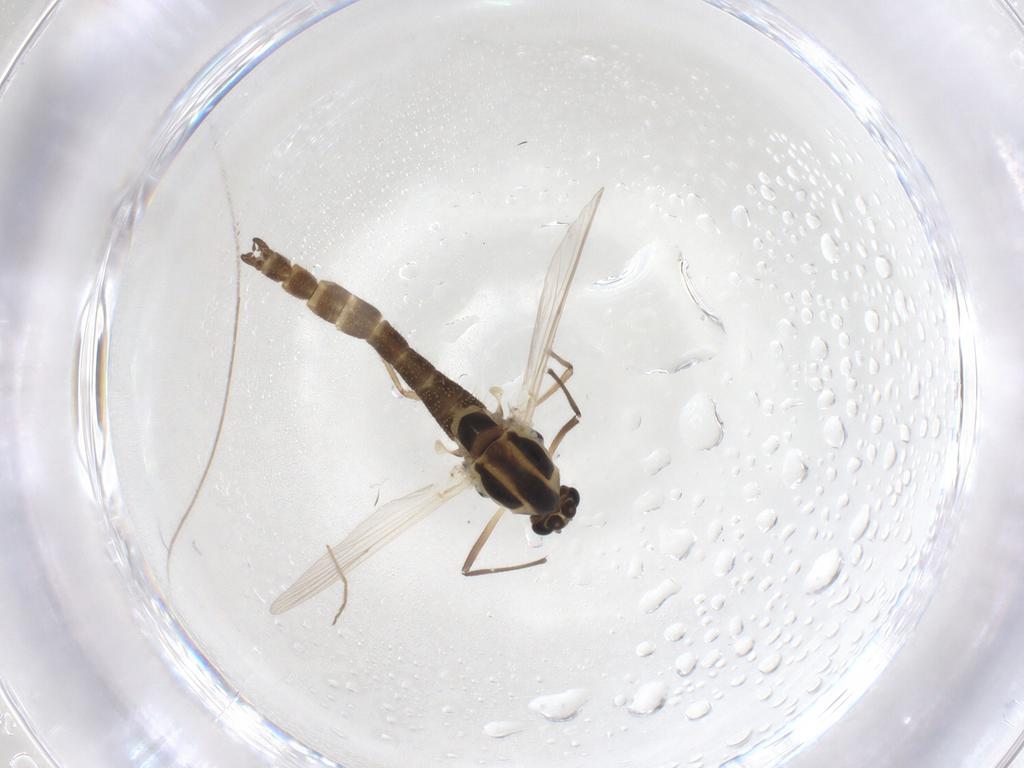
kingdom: Animalia
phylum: Arthropoda
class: Insecta
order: Diptera
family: Chironomidae
